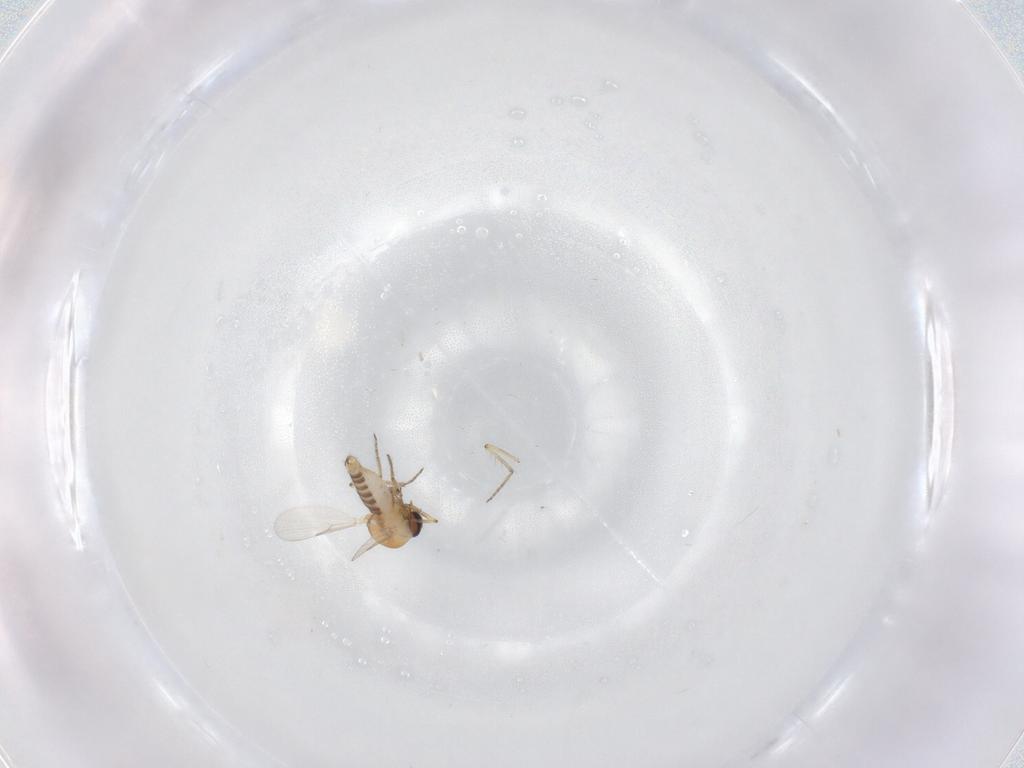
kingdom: Animalia
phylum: Arthropoda
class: Insecta
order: Diptera
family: Ceratopogonidae
